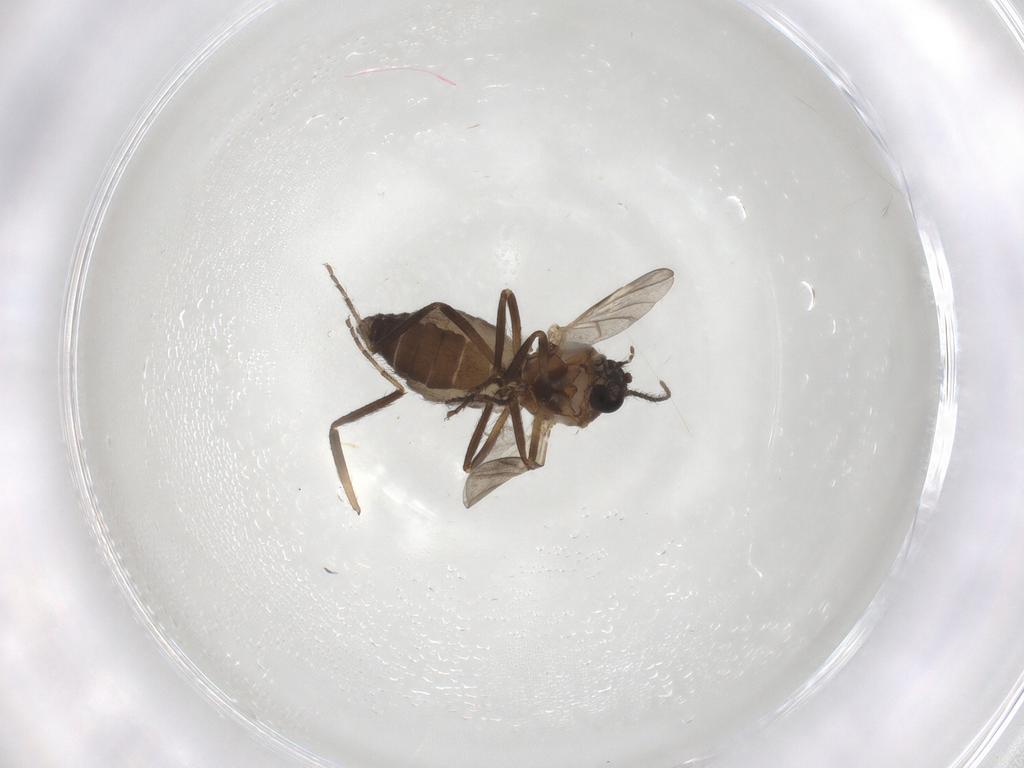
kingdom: Animalia
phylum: Arthropoda
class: Insecta
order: Diptera
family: Ceratopogonidae
